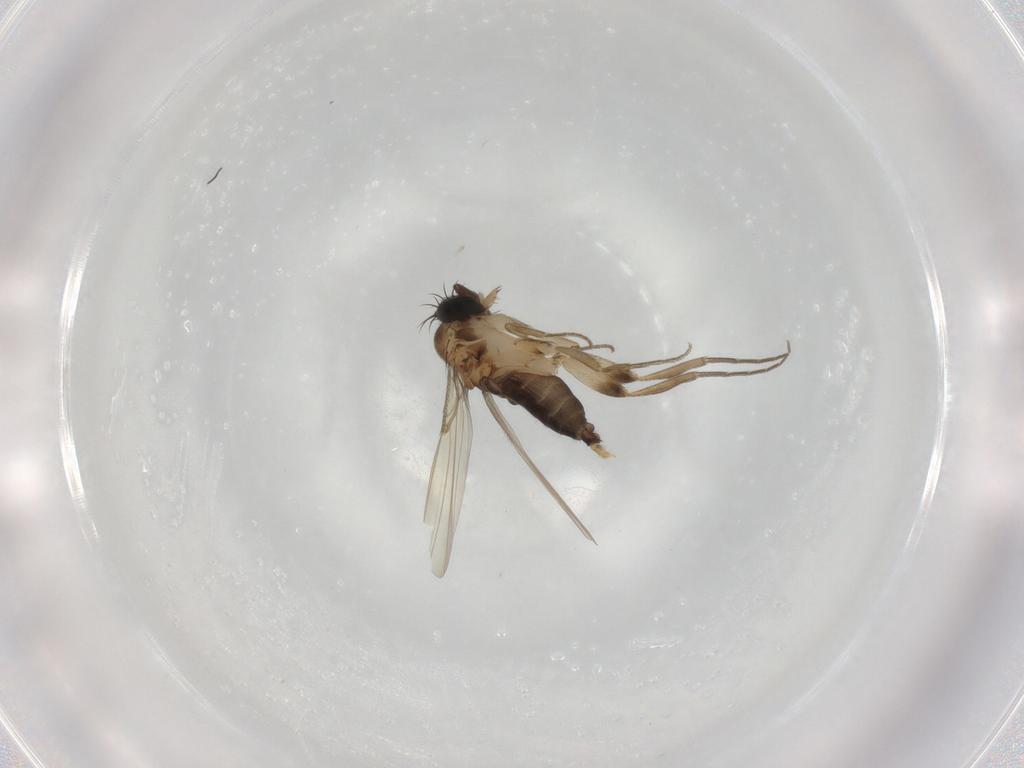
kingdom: Animalia
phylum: Arthropoda
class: Insecta
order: Diptera
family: Phoridae
